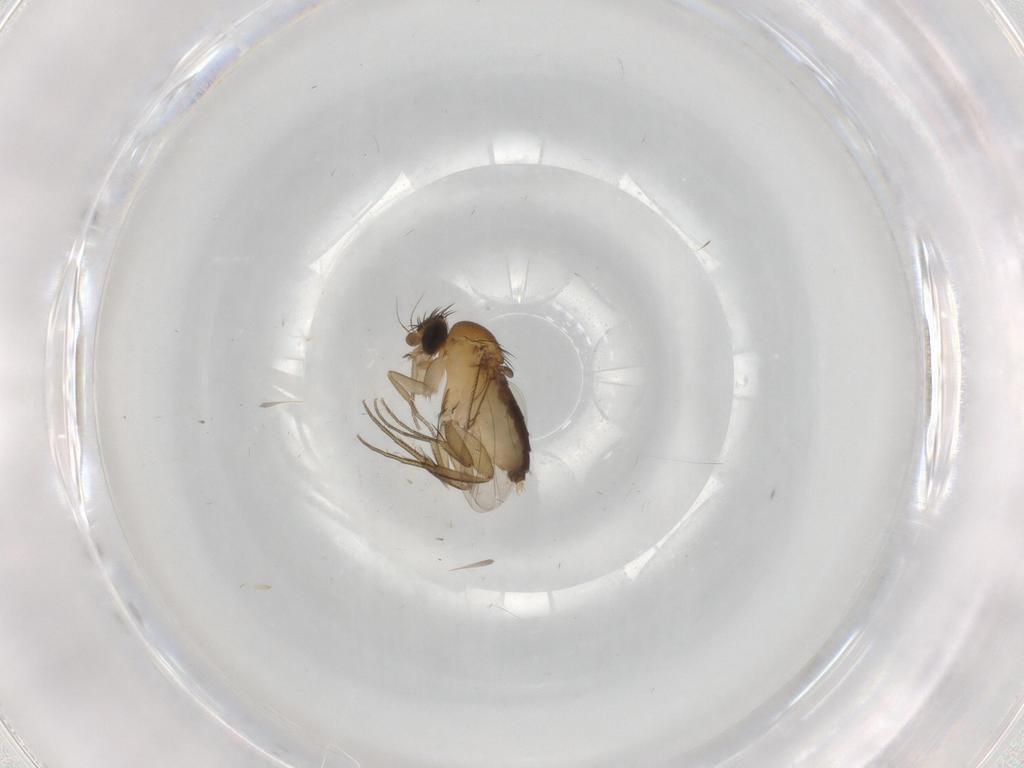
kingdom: Animalia
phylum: Arthropoda
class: Insecta
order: Diptera
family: Phoridae
